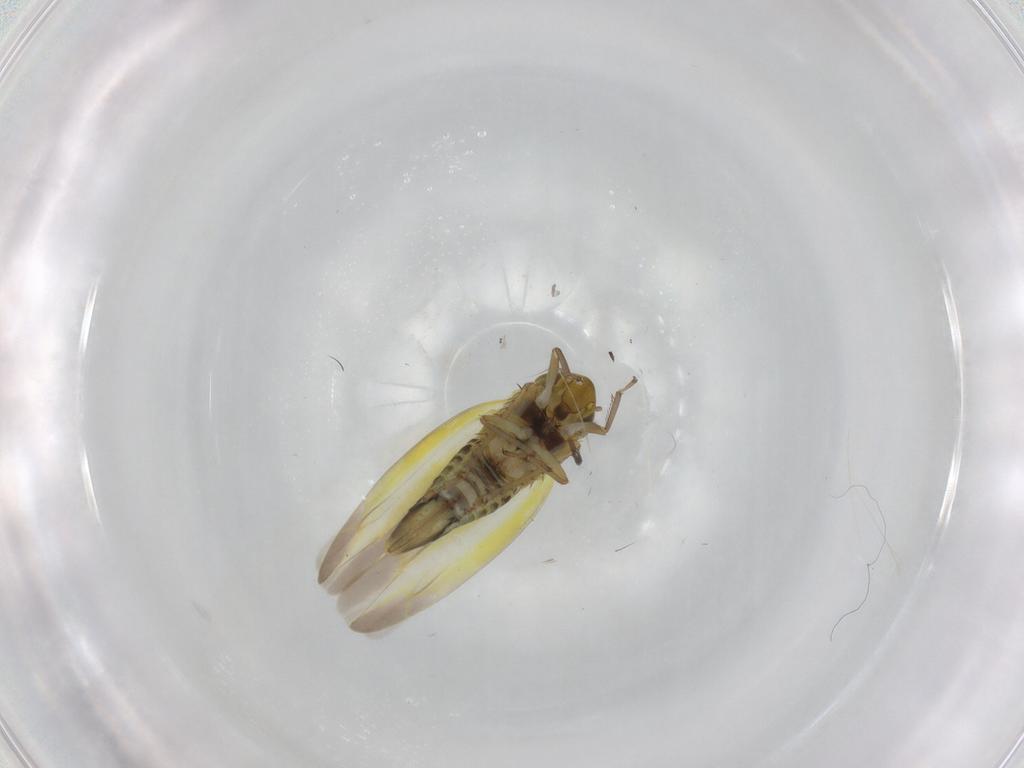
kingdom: Animalia
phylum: Arthropoda
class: Insecta
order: Hemiptera
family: Cicadellidae
